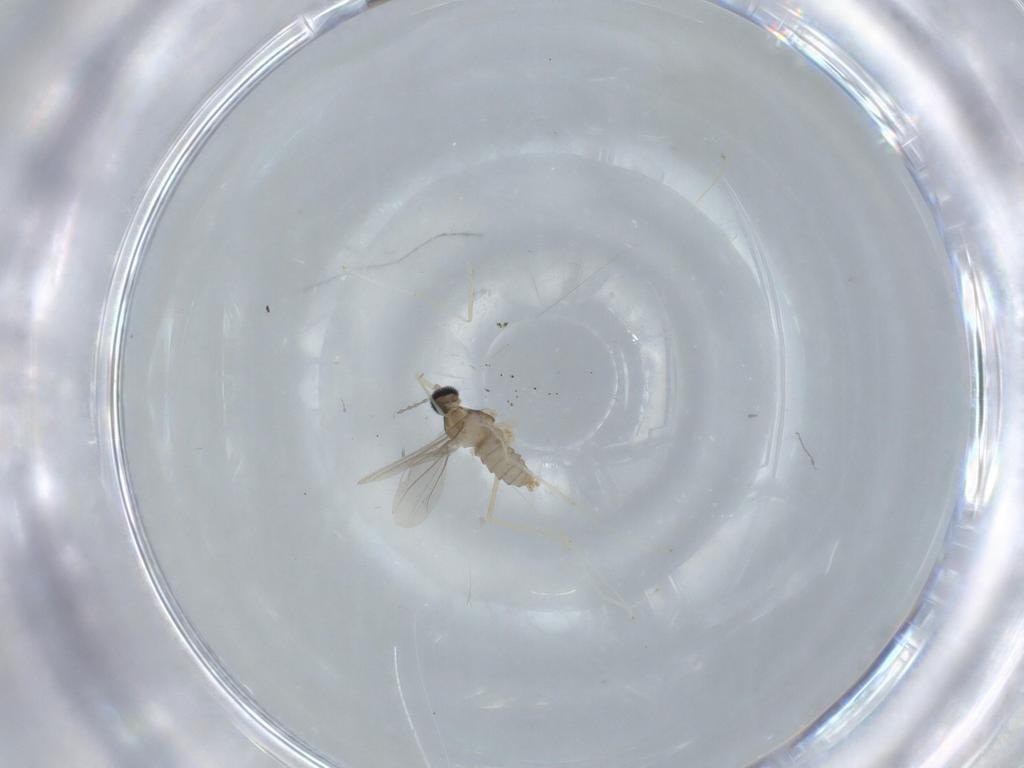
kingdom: Animalia
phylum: Arthropoda
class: Insecta
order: Diptera
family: Cecidomyiidae
